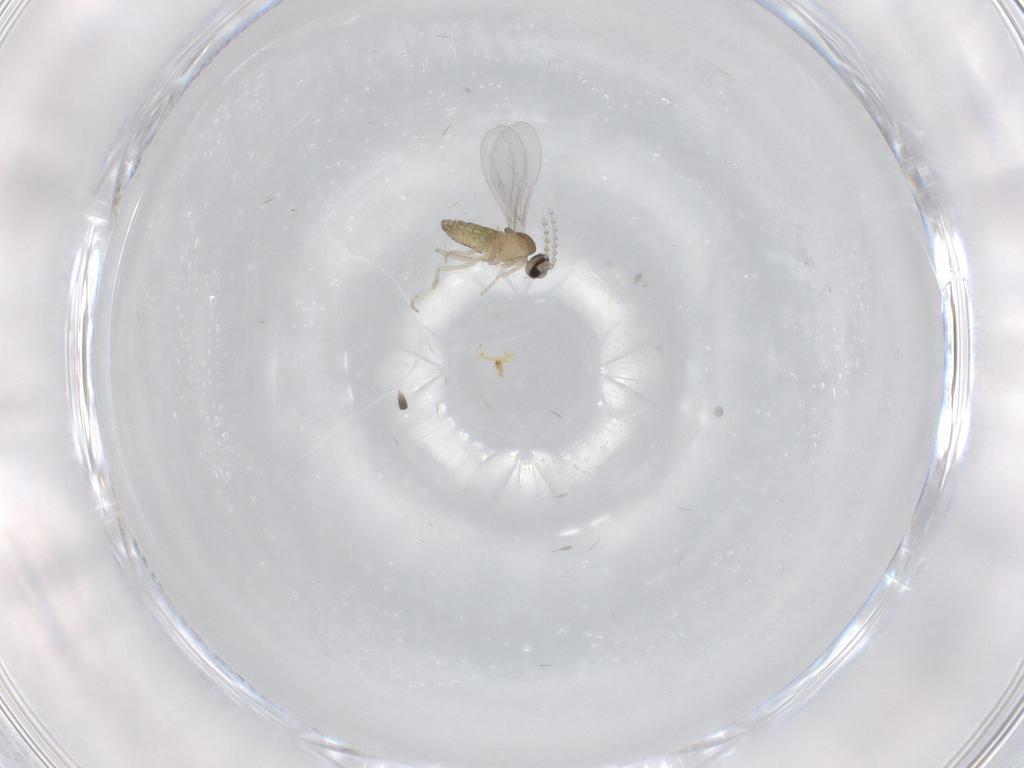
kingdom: Animalia
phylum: Arthropoda
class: Insecta
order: Diptera
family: Cecidomyiidae
